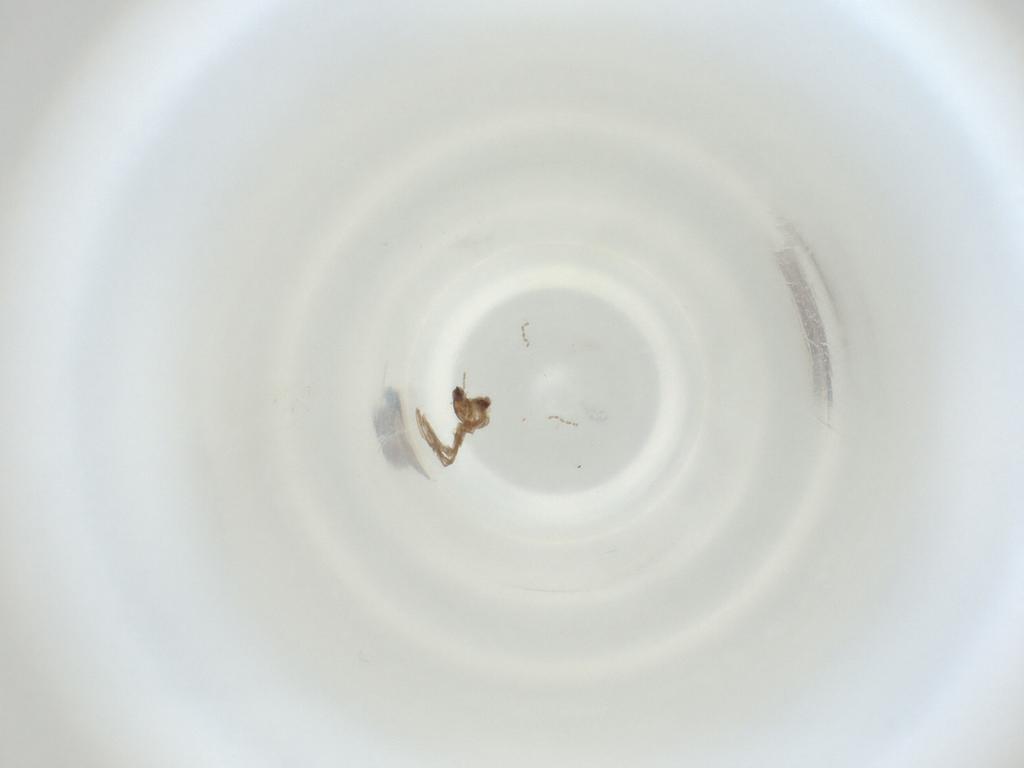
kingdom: Animalia
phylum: Arthropoda
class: Insecta
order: Diptera
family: Cecidomyiidae
